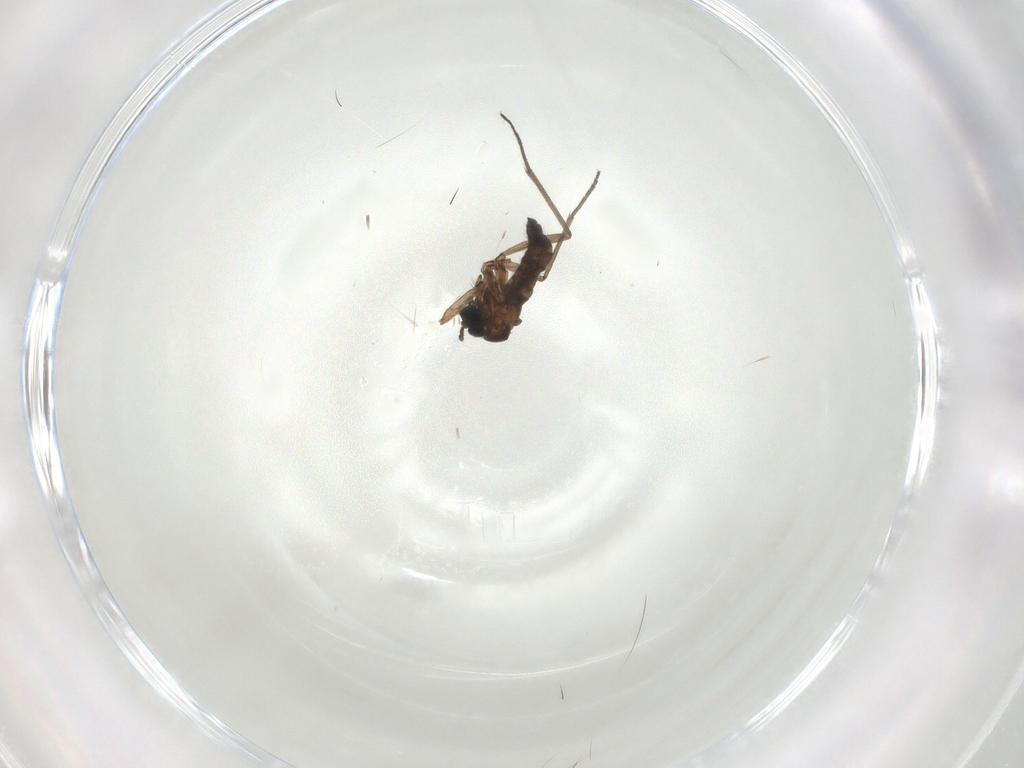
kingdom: Animalia
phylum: Arthropoda
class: Insecta
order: Diptera
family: Sciaridae
